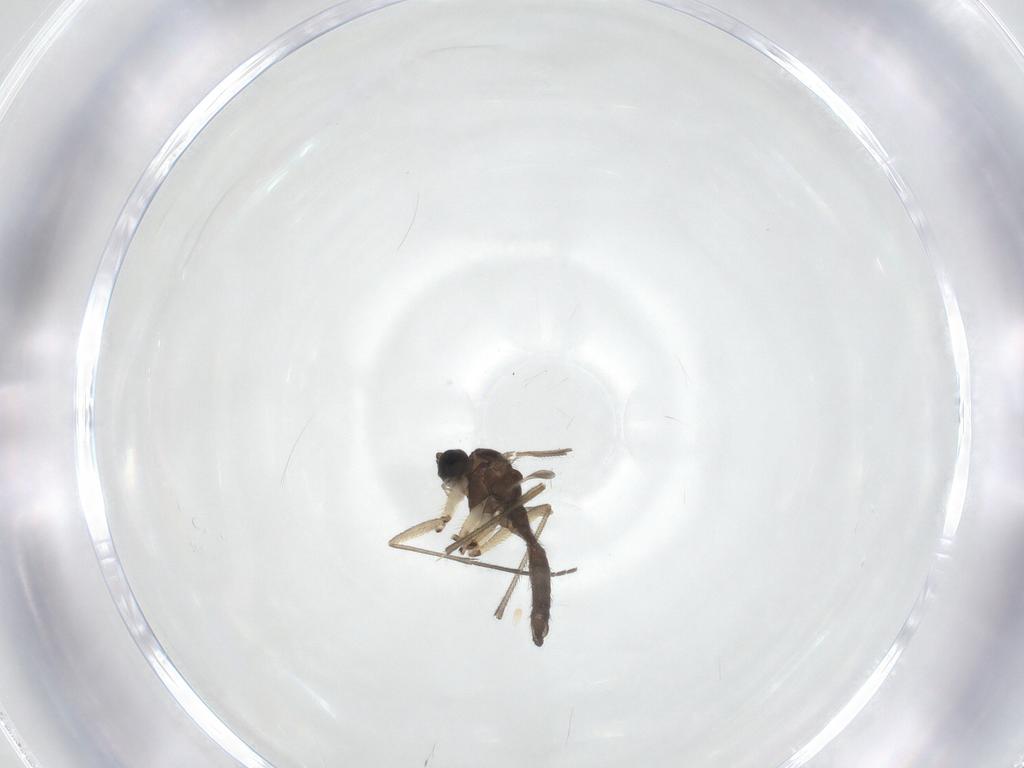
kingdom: Animalia
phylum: Arthropoda
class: Insecta
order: Diptera
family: Sciaridae
